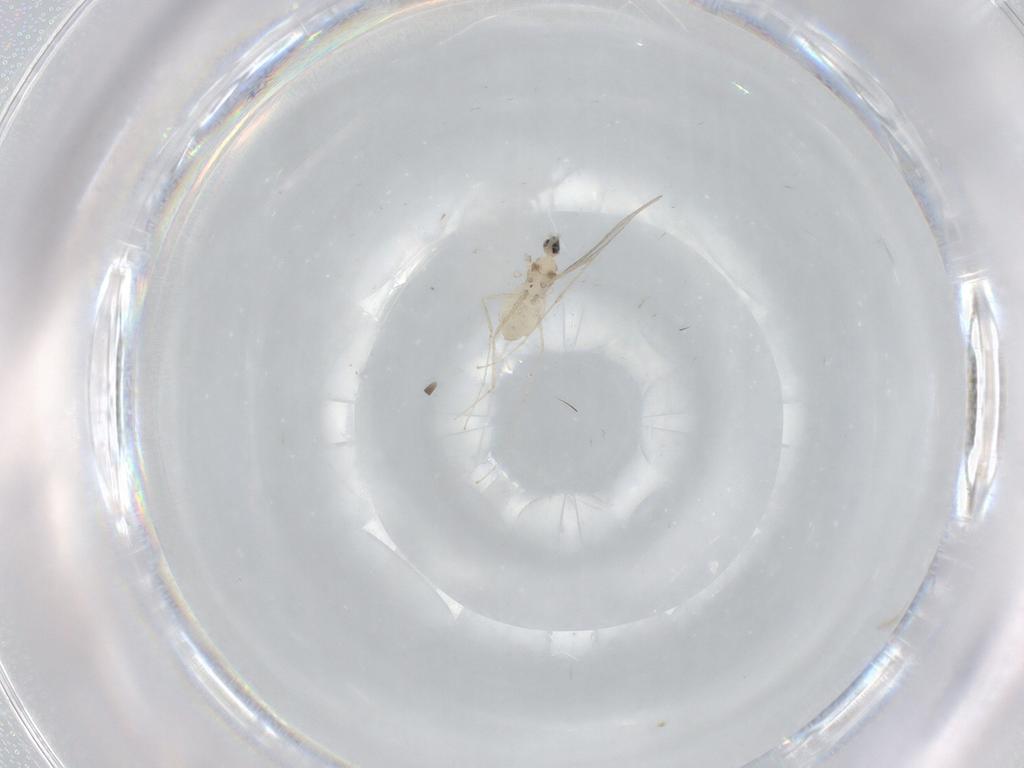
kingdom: Animalia
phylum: Arthropoda
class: Insecta
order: Diptera
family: Cecidomyiidae
